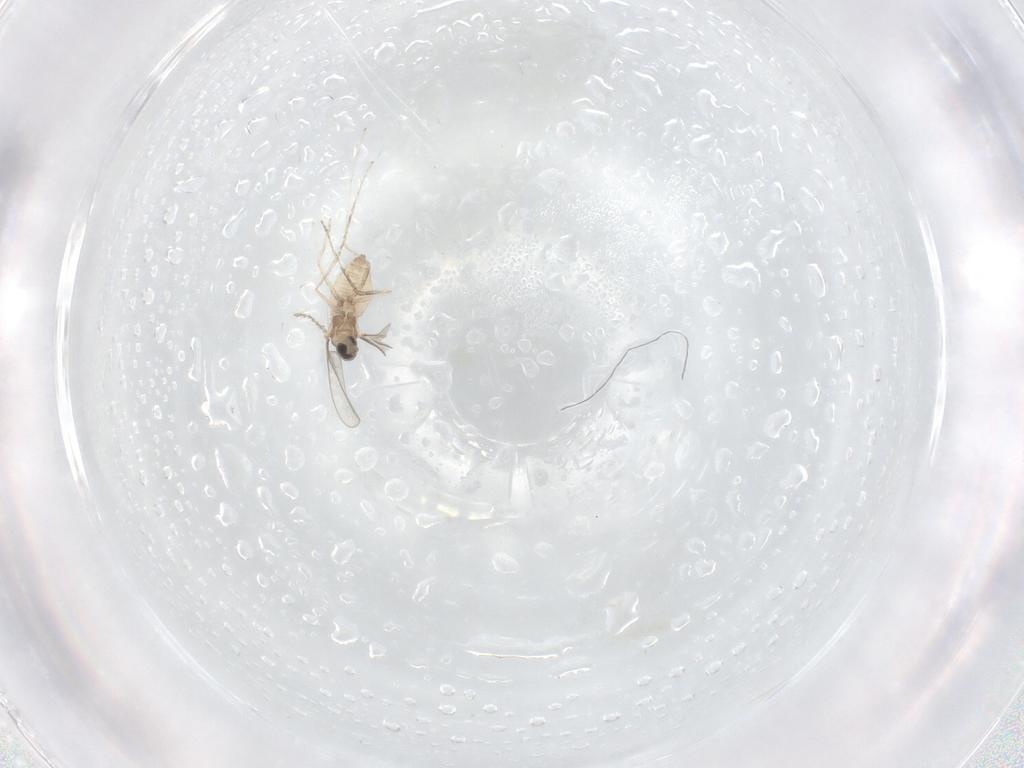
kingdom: Animalia
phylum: Arthropoda
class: Insecta
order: Diptera
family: Cecidomyiidae
